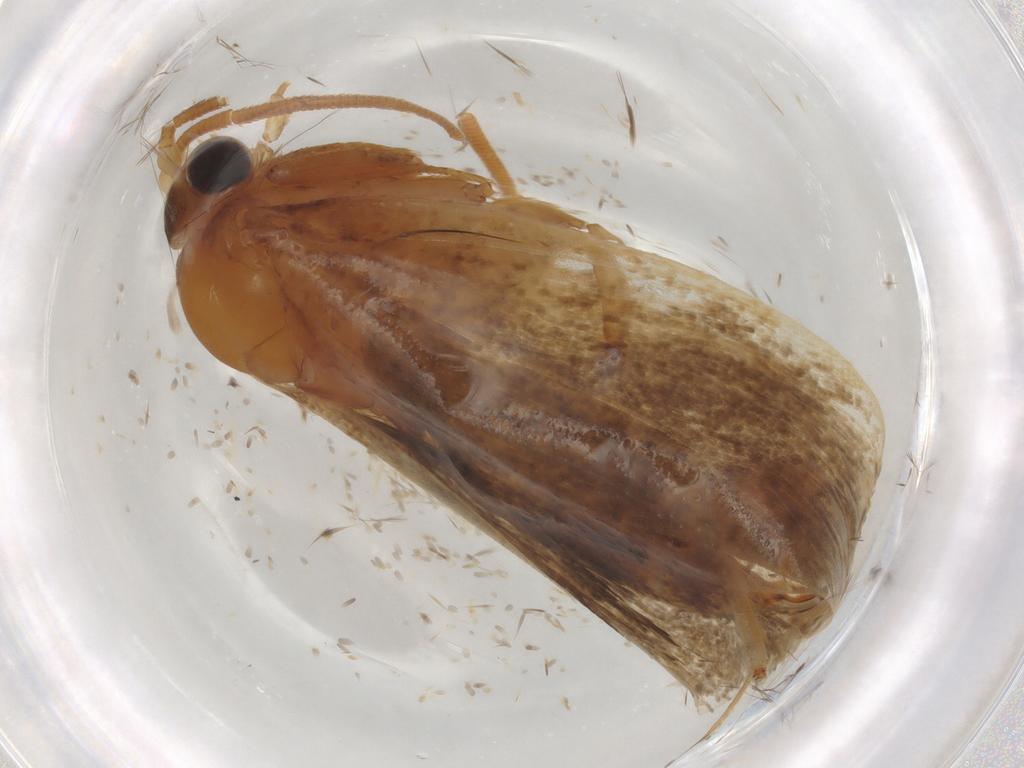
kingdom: Animalia
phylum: Arthropoda
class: Insecta
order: Lepidoptera
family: Tineidae
